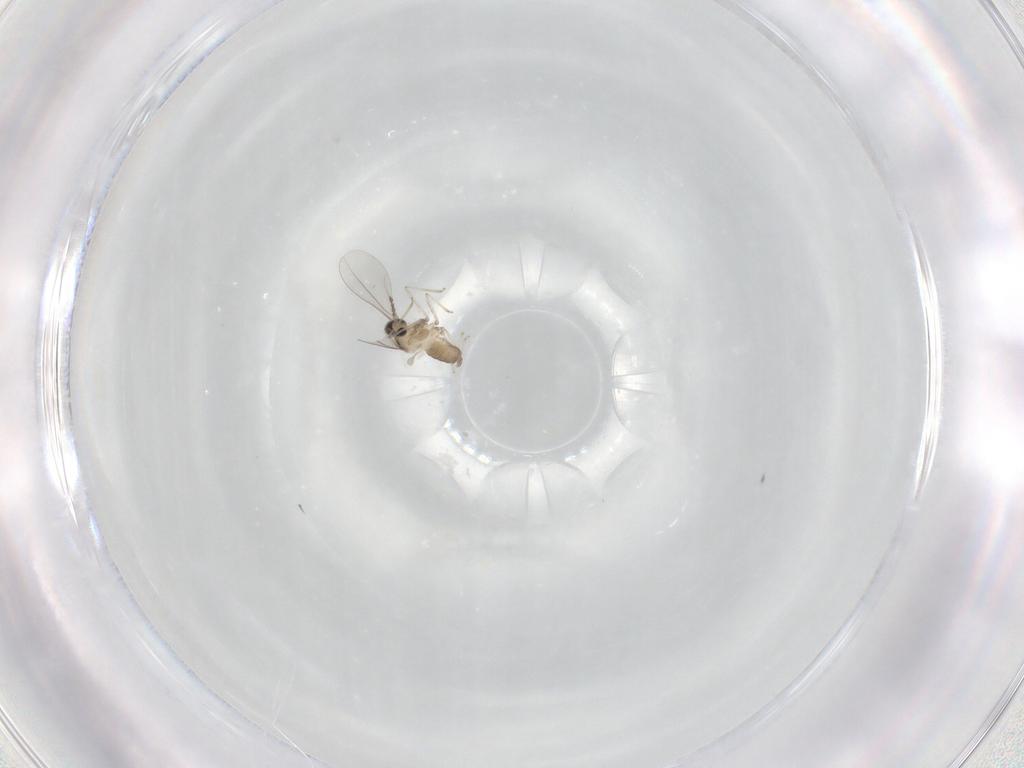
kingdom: Animalia
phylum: Arthropoda
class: Insecta
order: Diptera
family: Cecidomyiidae
